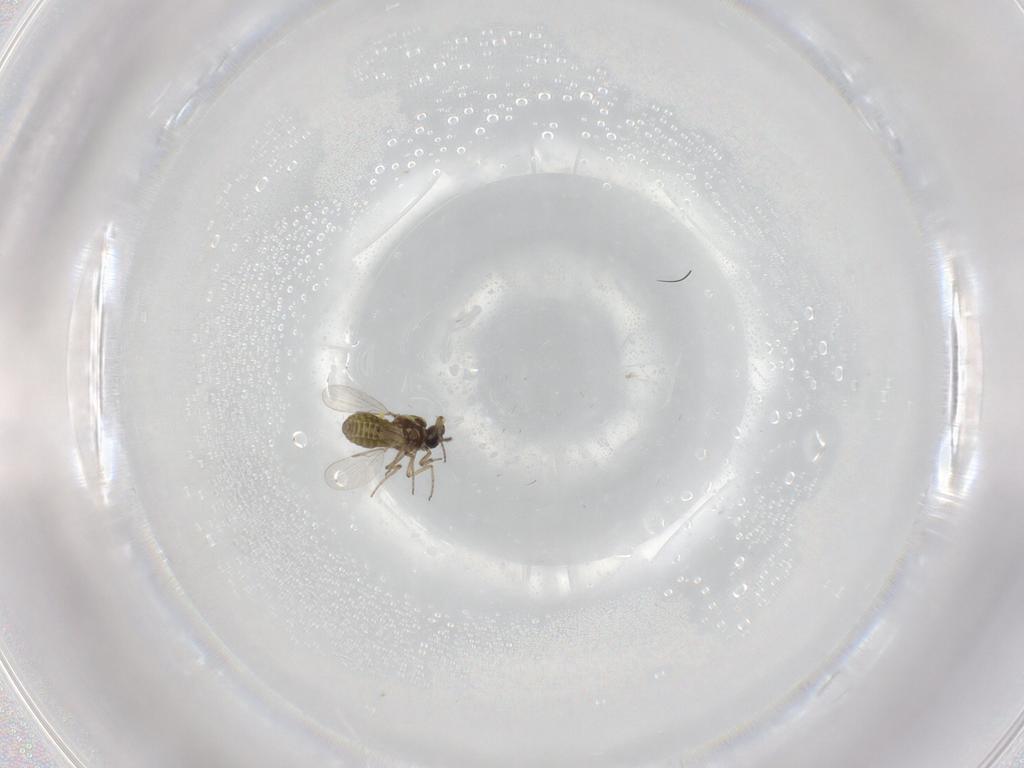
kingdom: Animalia
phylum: Arthropoda
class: Insecta
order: Diptera
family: Ceratopogonidae
